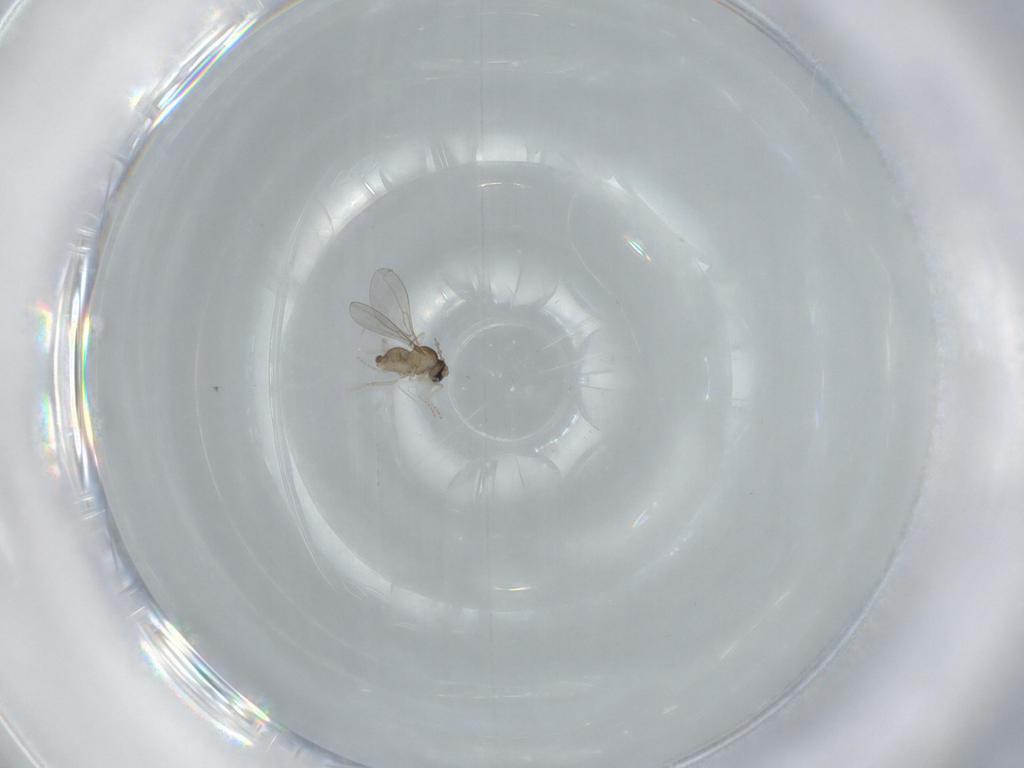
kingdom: Animalia
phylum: Arthropoda
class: Insecta
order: Diptera
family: Cecidomyiidae
